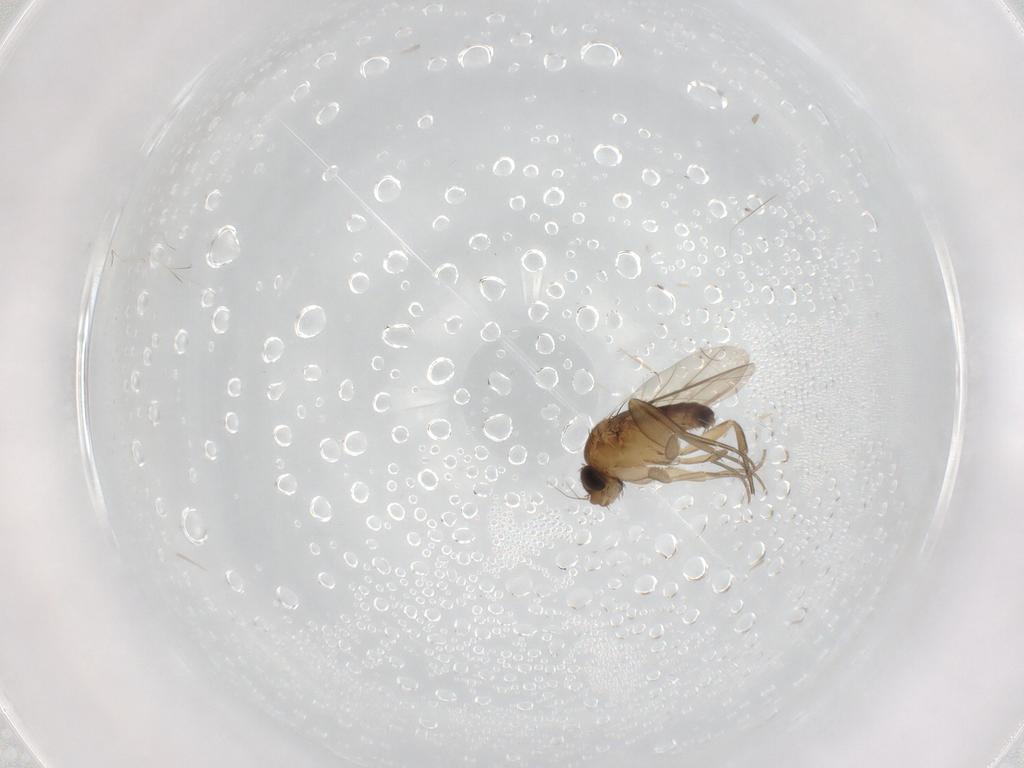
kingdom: Animalia
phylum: Arthropoda
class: Insecta
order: Diptera
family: Phoridae
